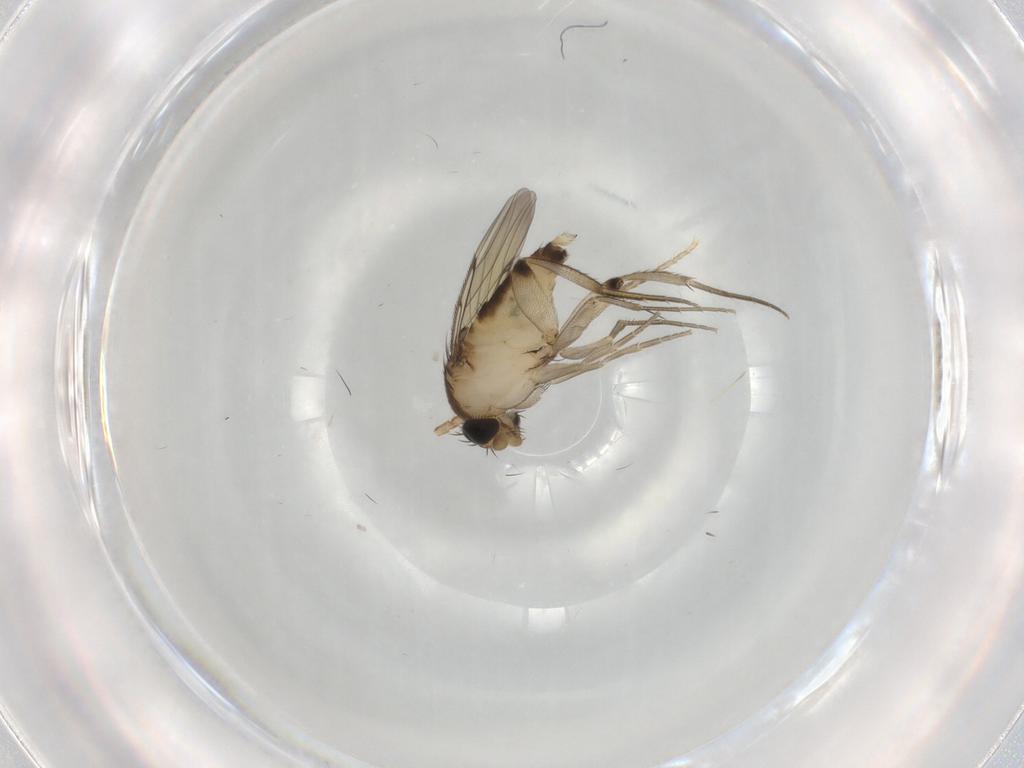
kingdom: Animalia
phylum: Arthropoda
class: Insecta
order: Diptera
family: Phoridae
